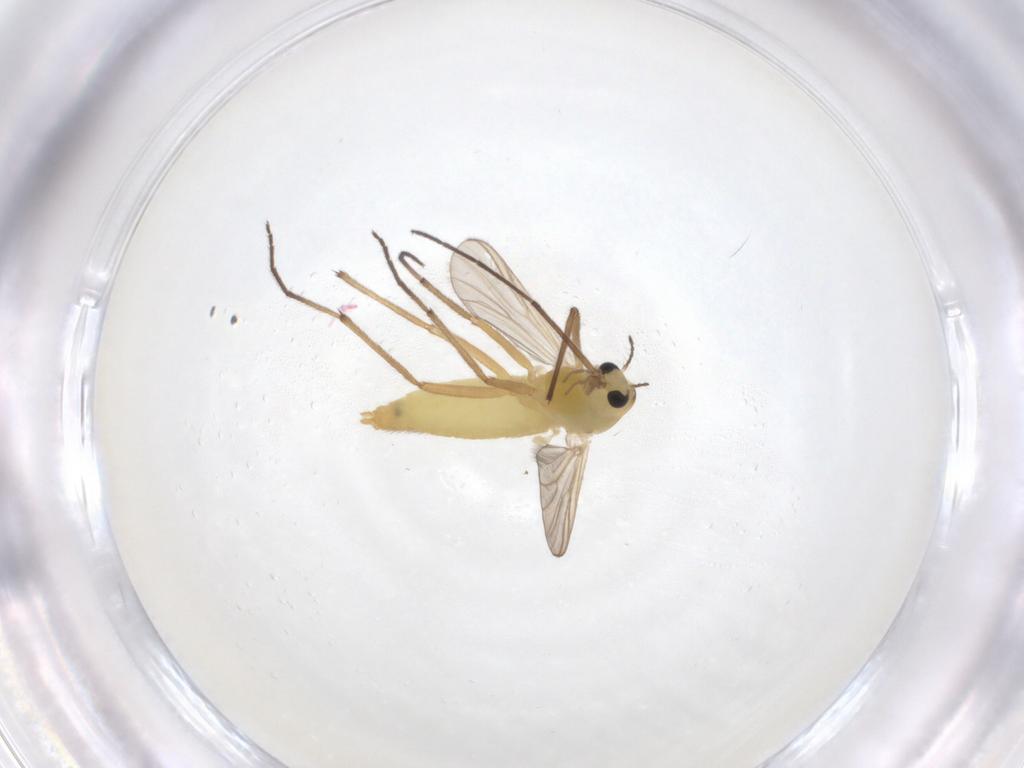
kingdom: Animalia
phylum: Arthropoda
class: Insecta
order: Diptera
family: Chironomidae
